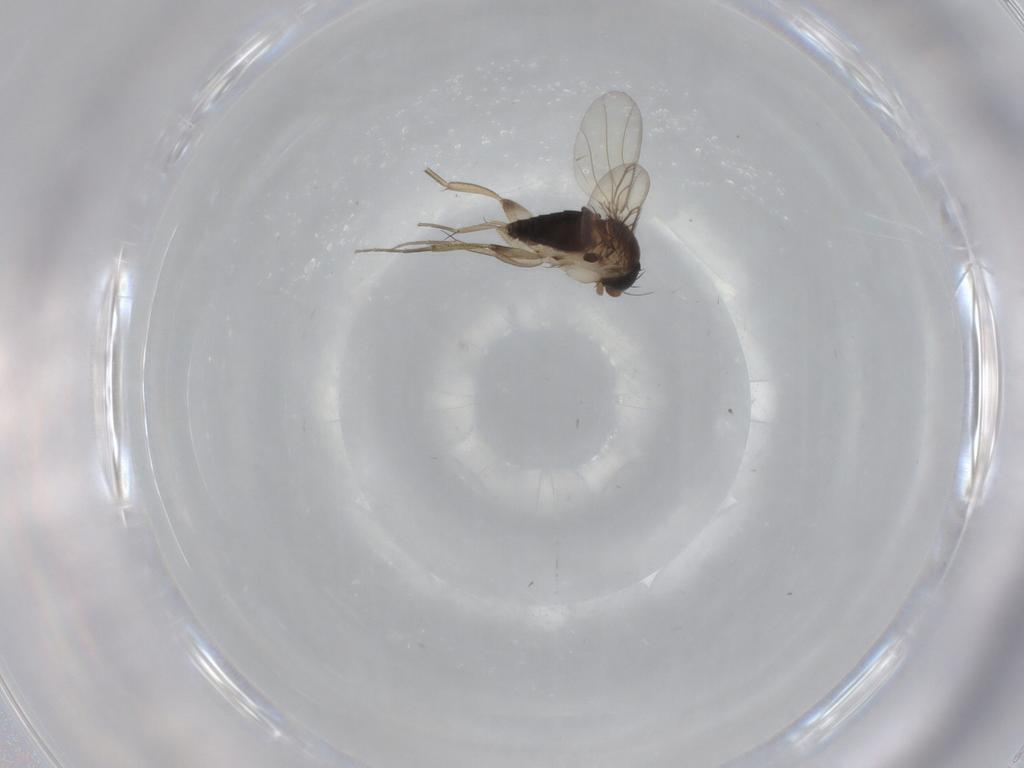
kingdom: Animalia
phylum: Arthropoda
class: Insecta
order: Diptera
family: Phoridae
